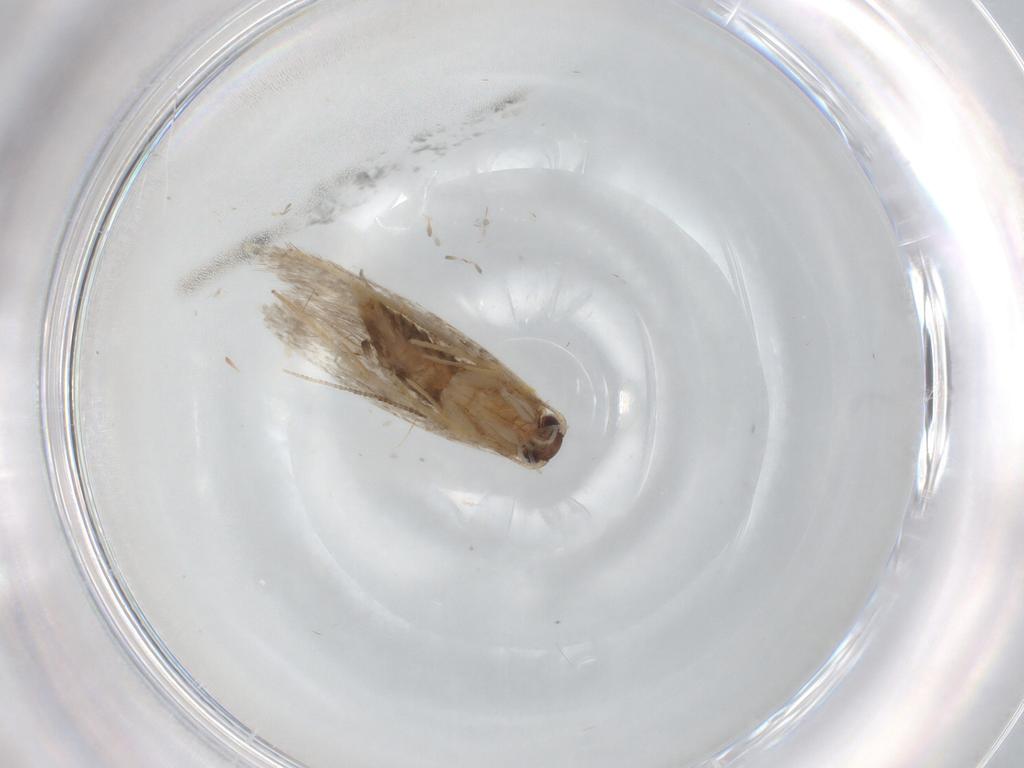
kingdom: Animalia
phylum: Arthropoda
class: Insecta
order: Lepidoptera
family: Tineidae
